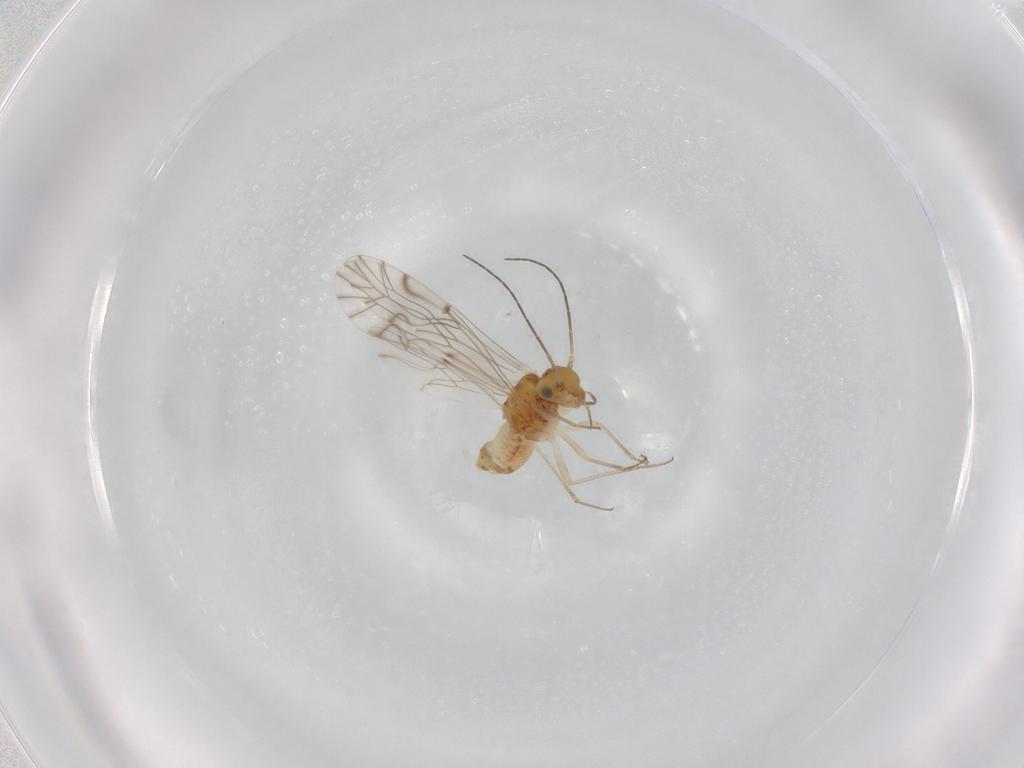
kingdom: Animalia
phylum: Arthropoda
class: Insecta
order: Psocodea
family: Lachesillidae
